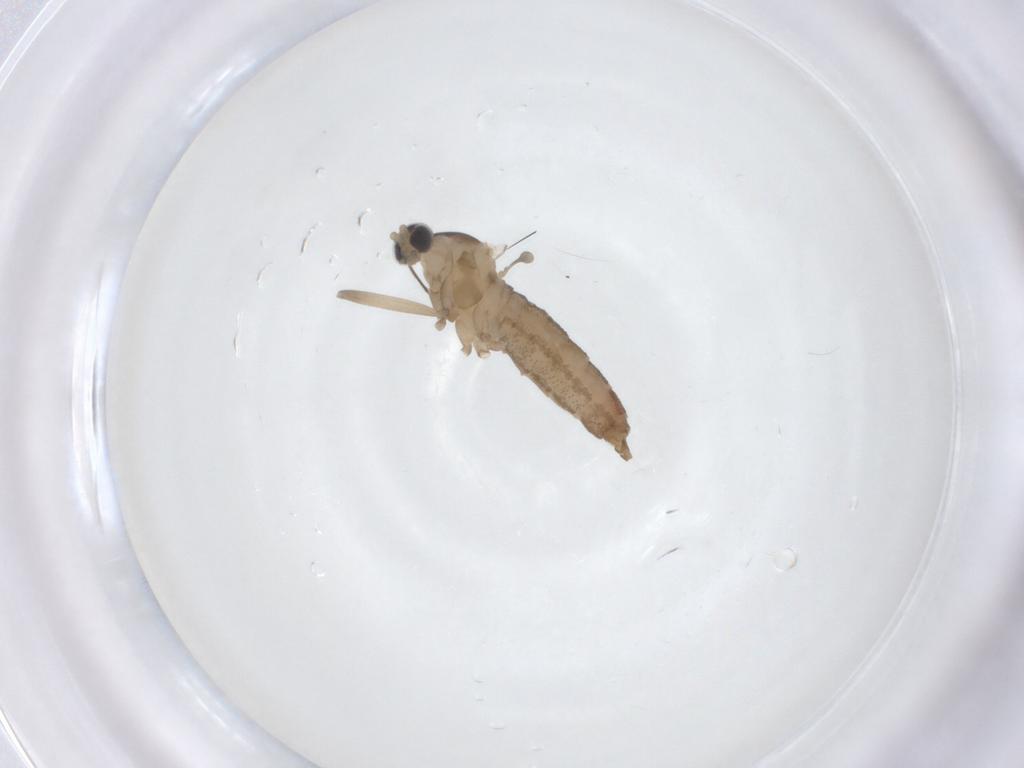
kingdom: Animalia
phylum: Arthropoda
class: Insecta
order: Diptera
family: Cecidomyiidae
